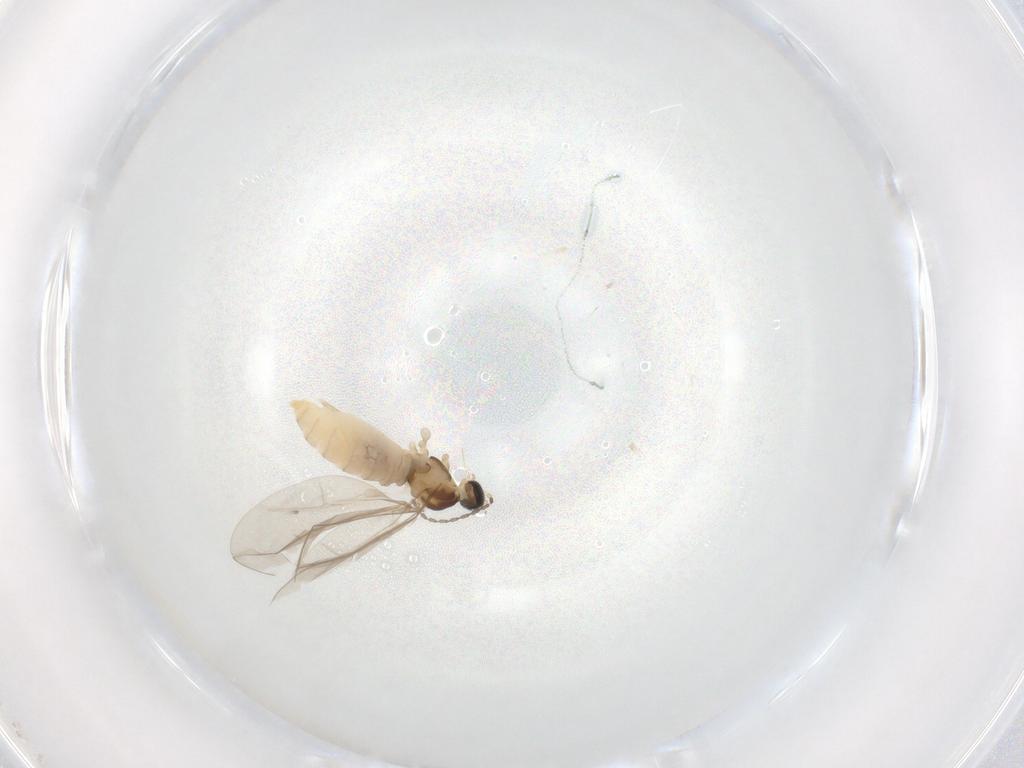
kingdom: Animalia
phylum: Arthropoda
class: Insecta
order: Diptera
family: Cecidomyiidae
